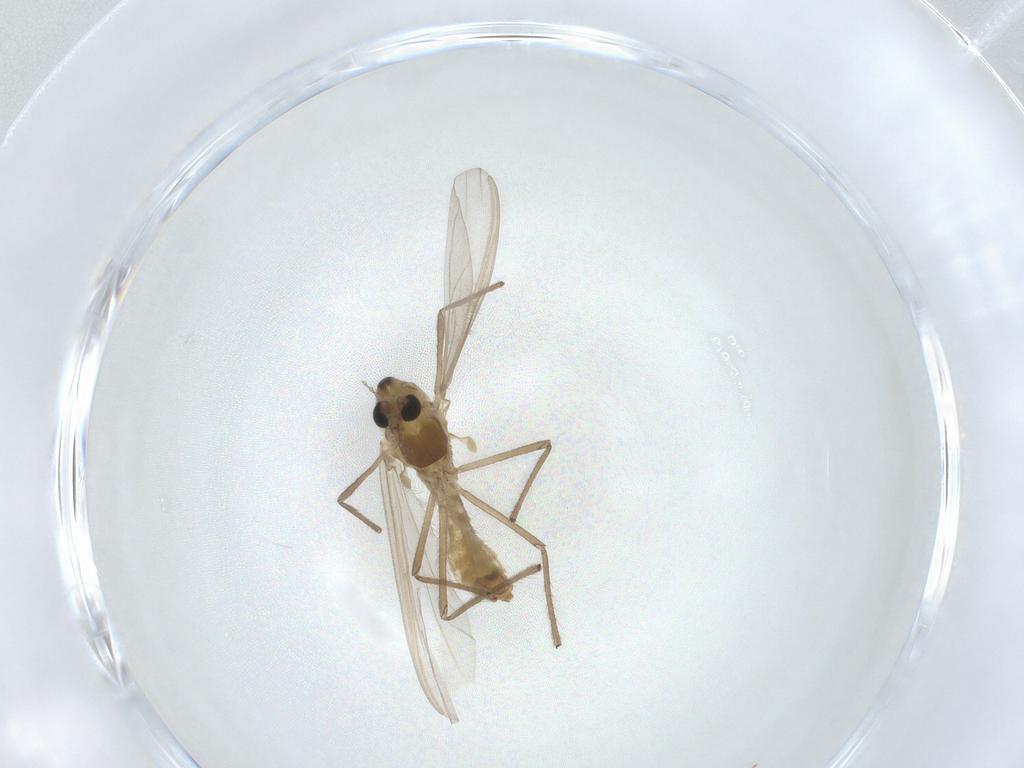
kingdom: Animalia
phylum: Arthropoda
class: Insecta
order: Diptera
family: Chironomidae
